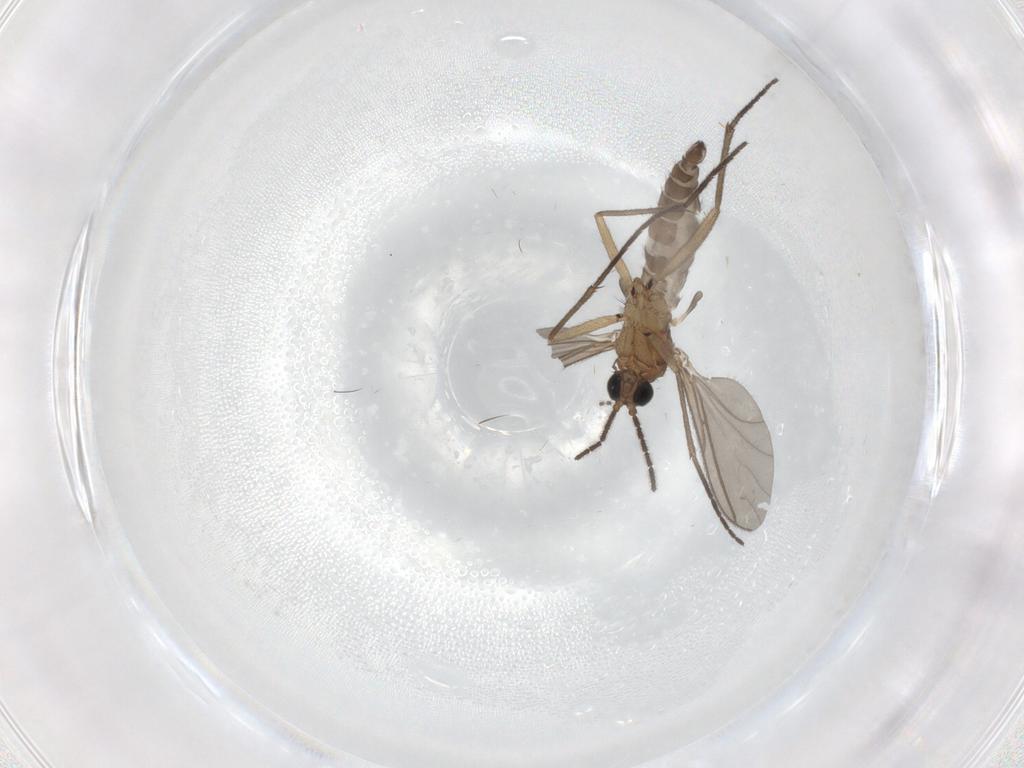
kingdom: Animalia
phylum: Arthropoda
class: Insecta
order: Diptera
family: Sciaridae
